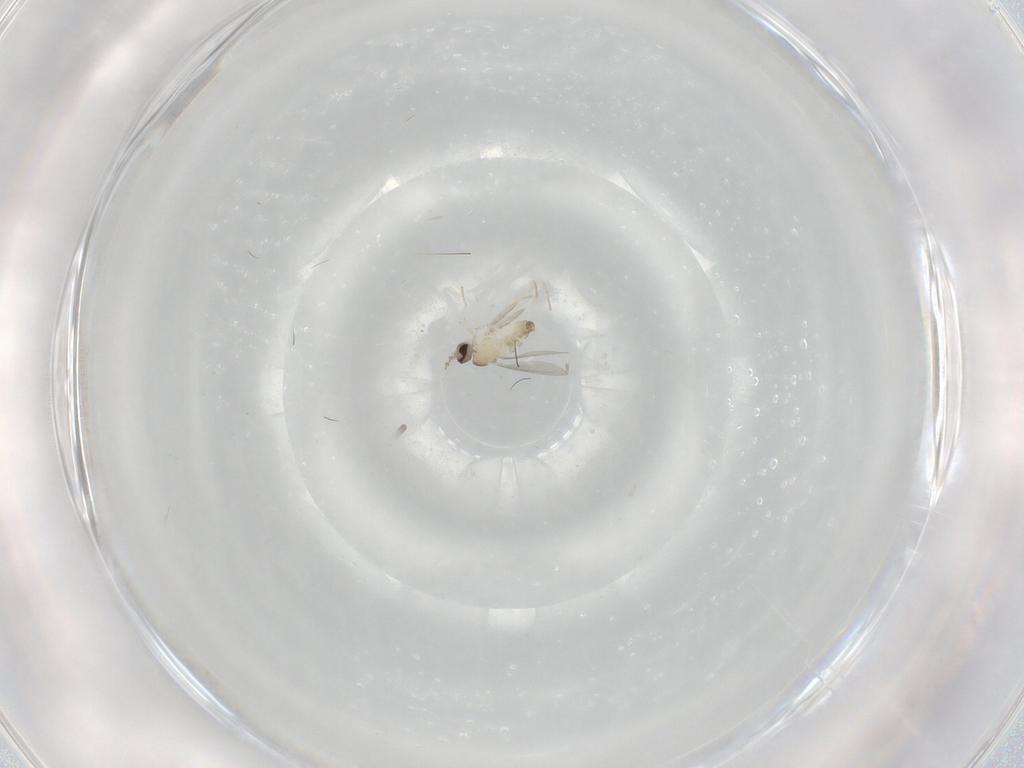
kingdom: Animalia
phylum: Arthropoda
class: Insecta
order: Diptera
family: Cecidomyiidae
